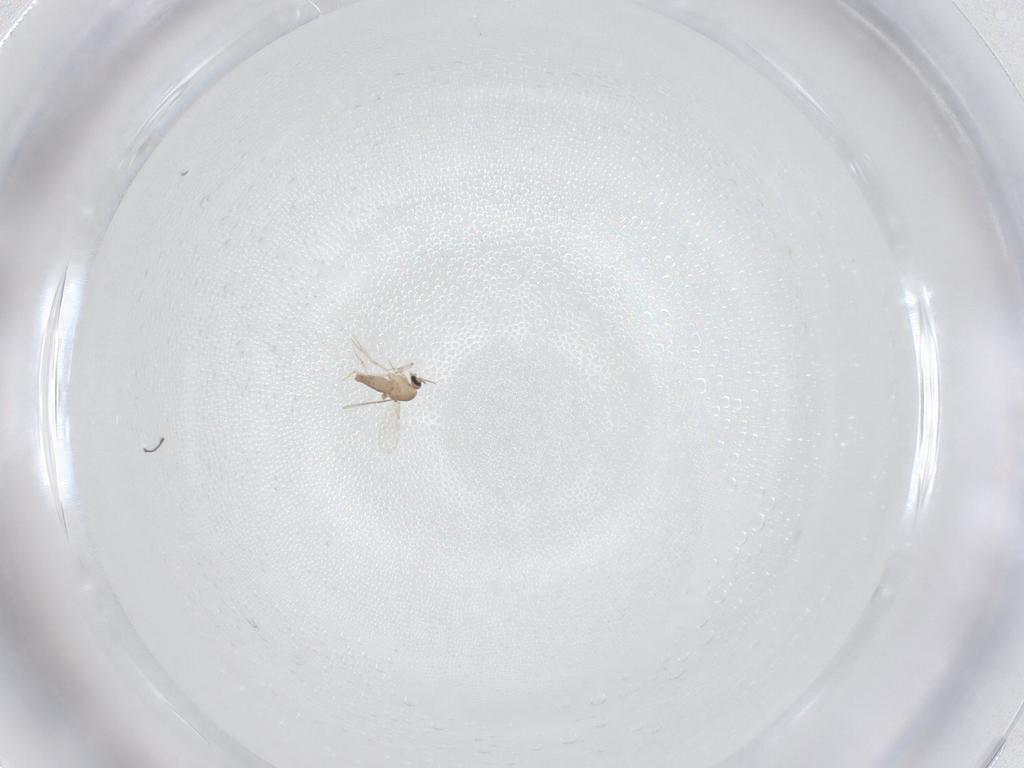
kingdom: Animalia
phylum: Arthropoda
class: Insecta
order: Diptera
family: Ceratopogonidae
